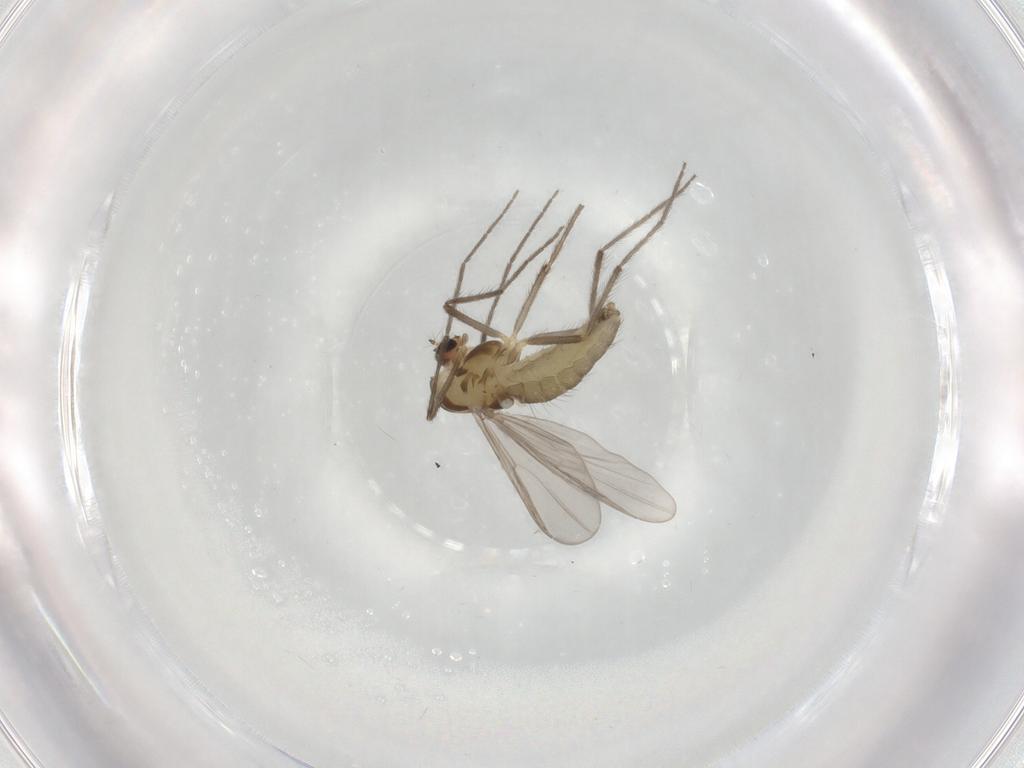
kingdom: Animalia
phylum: Arthropoda
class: Insecta
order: Diptera
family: Chironomidae
